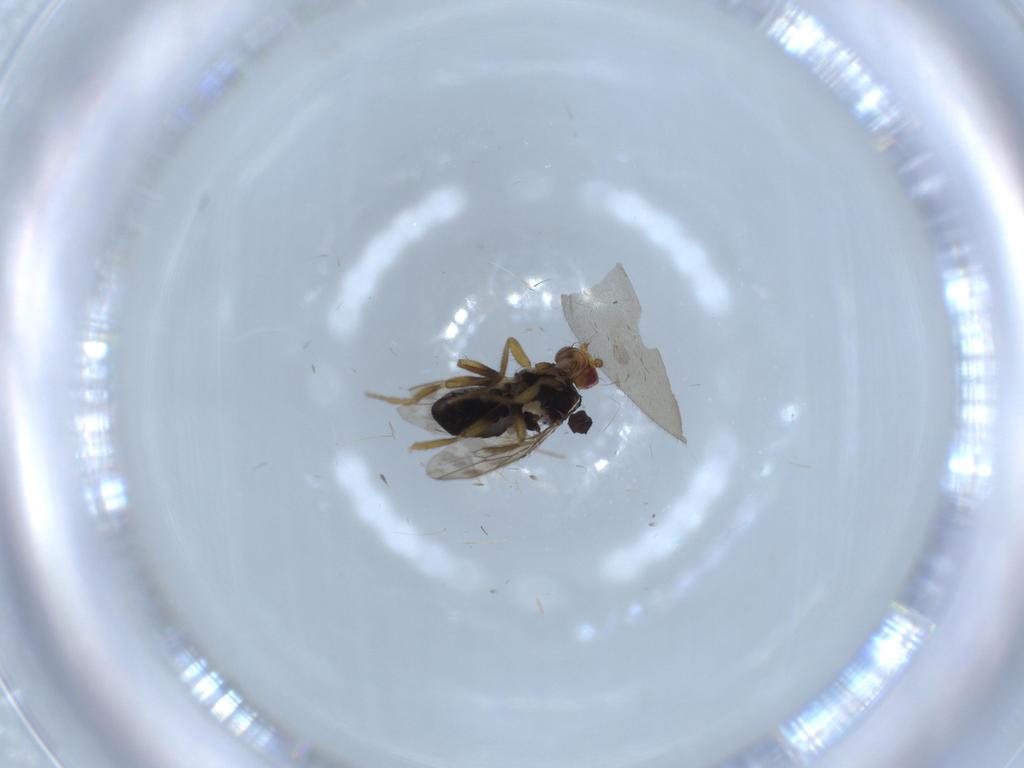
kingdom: Animalia
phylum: Arthropoda
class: Insecta
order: Diptera
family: Sphaeroceridae
